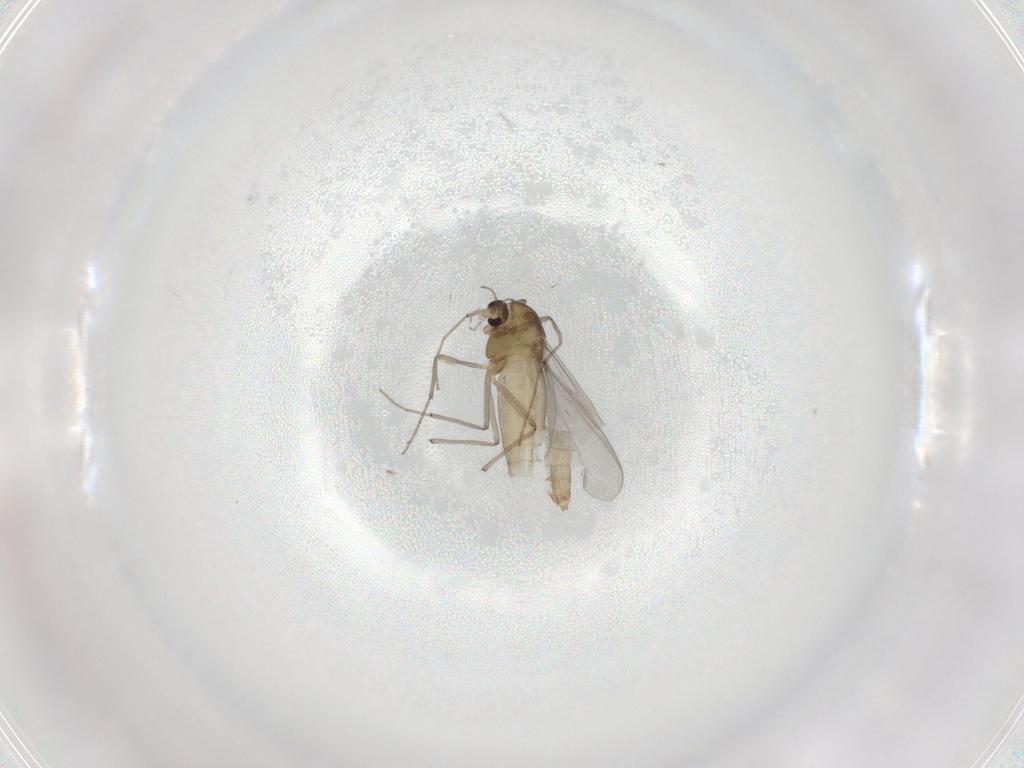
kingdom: Animalia
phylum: Arthropoda
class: Insecta
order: Diptera
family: Chironomidae
